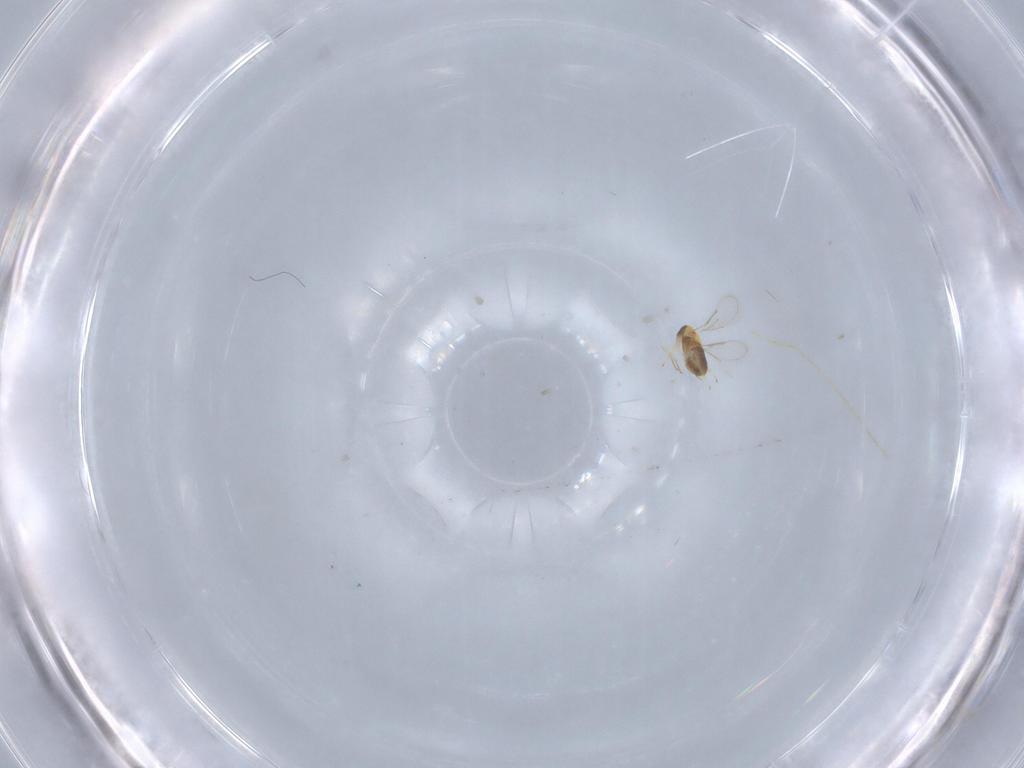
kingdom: Animalia
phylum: Arthropoda
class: Insecta
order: Hymenoptera
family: Aphelinidae
